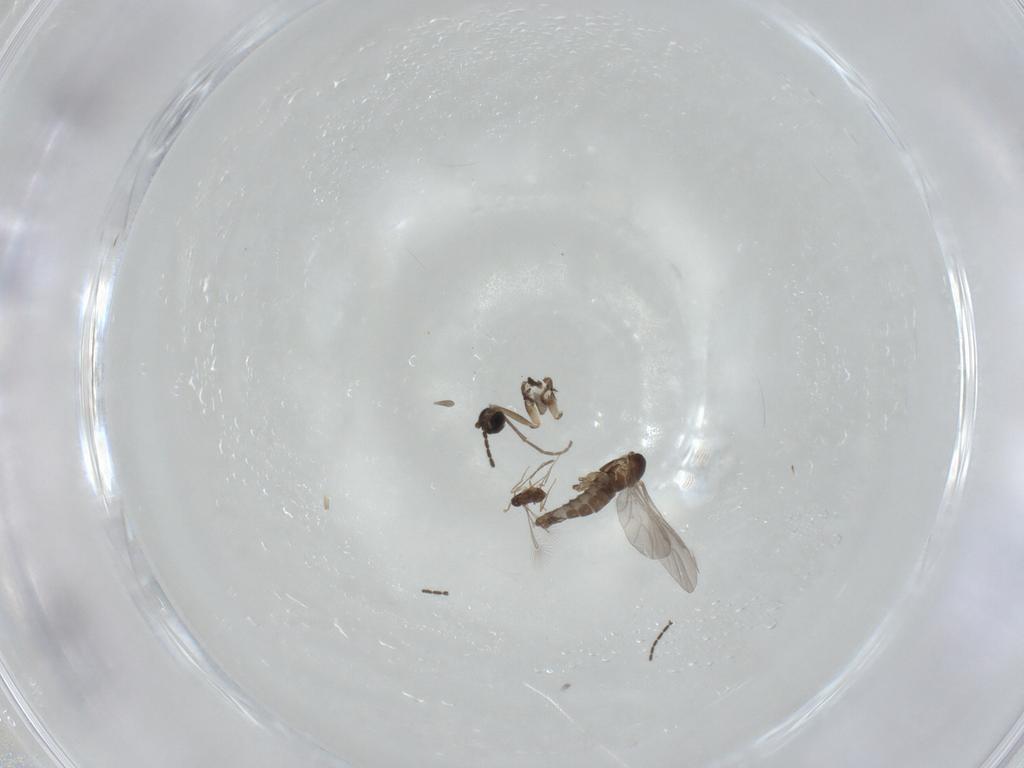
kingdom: Animalia
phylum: Arthropoda
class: Insecta
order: Diptera
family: Sciaridae
